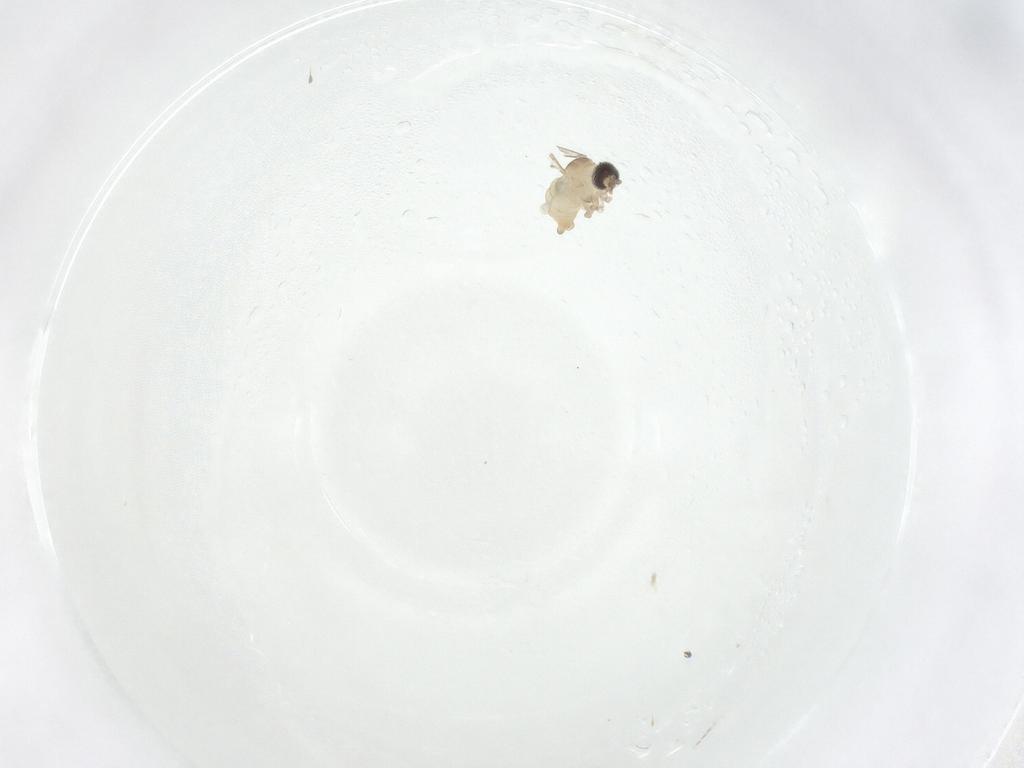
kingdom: Animalia
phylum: Arthropoda
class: Insecta
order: Diptera
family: Cecidomyiidae
